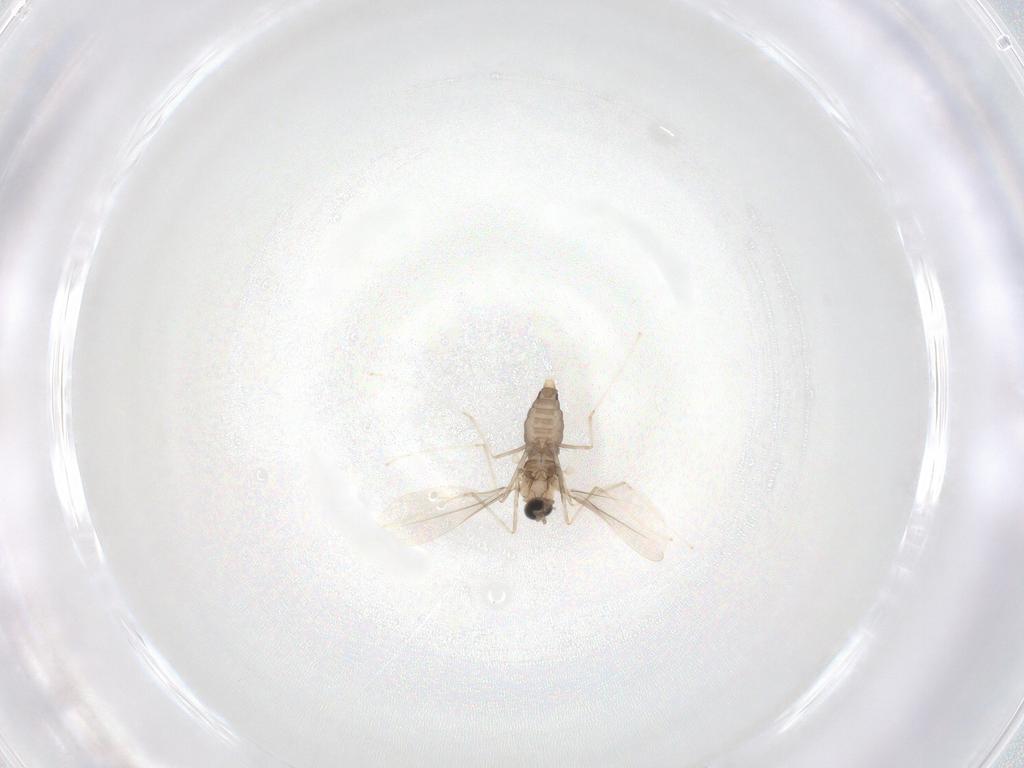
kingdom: Animalia
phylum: Arthropoda
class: Insecta
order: Diptera
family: Cecidomyiidae
